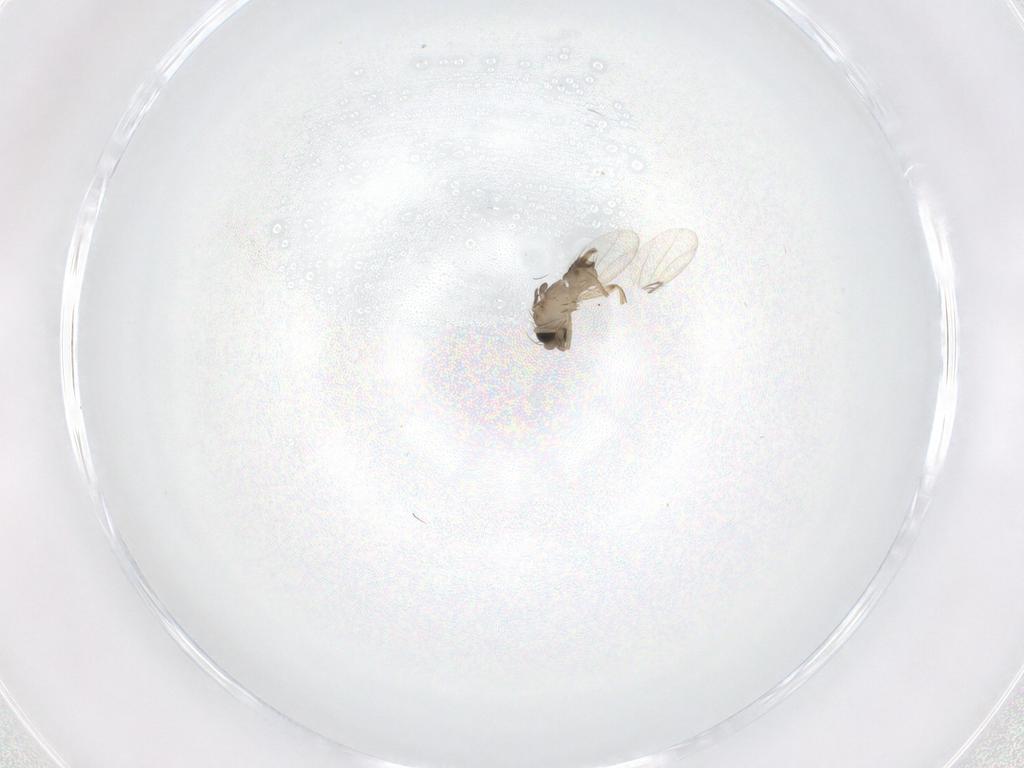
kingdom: Animalia
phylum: Arthropoda
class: Insecta
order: Diptera
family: Phoridae
